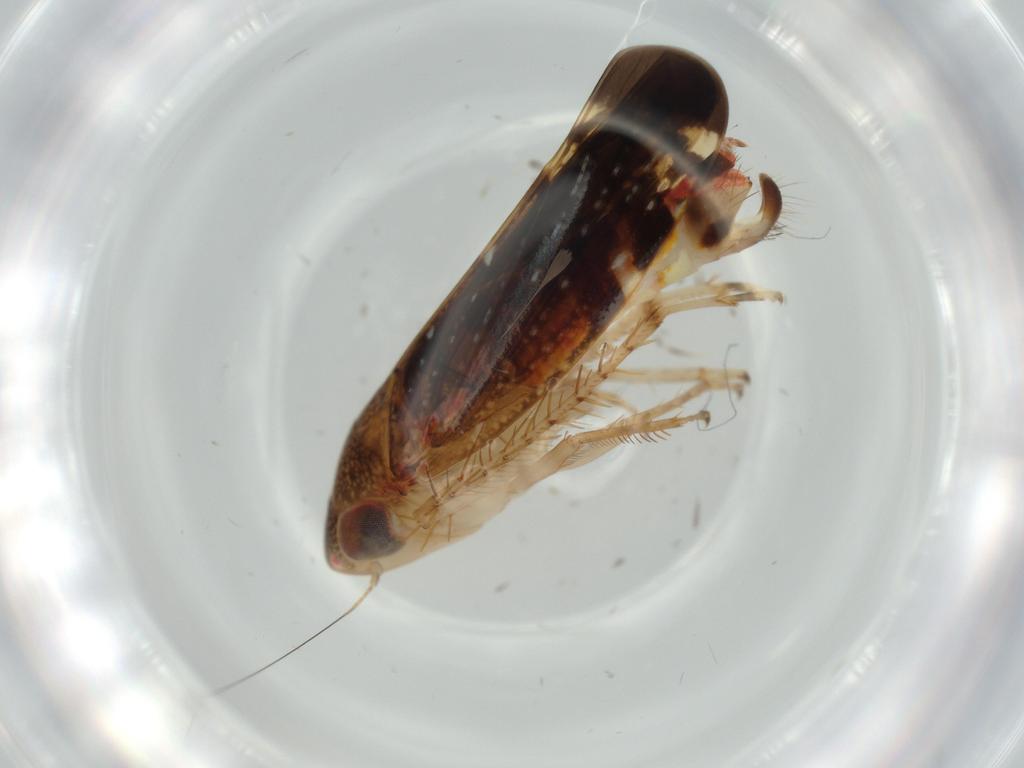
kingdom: Animalia
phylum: Arthropoda
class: Insecta
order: Hemiptera
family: Cicadellidae
